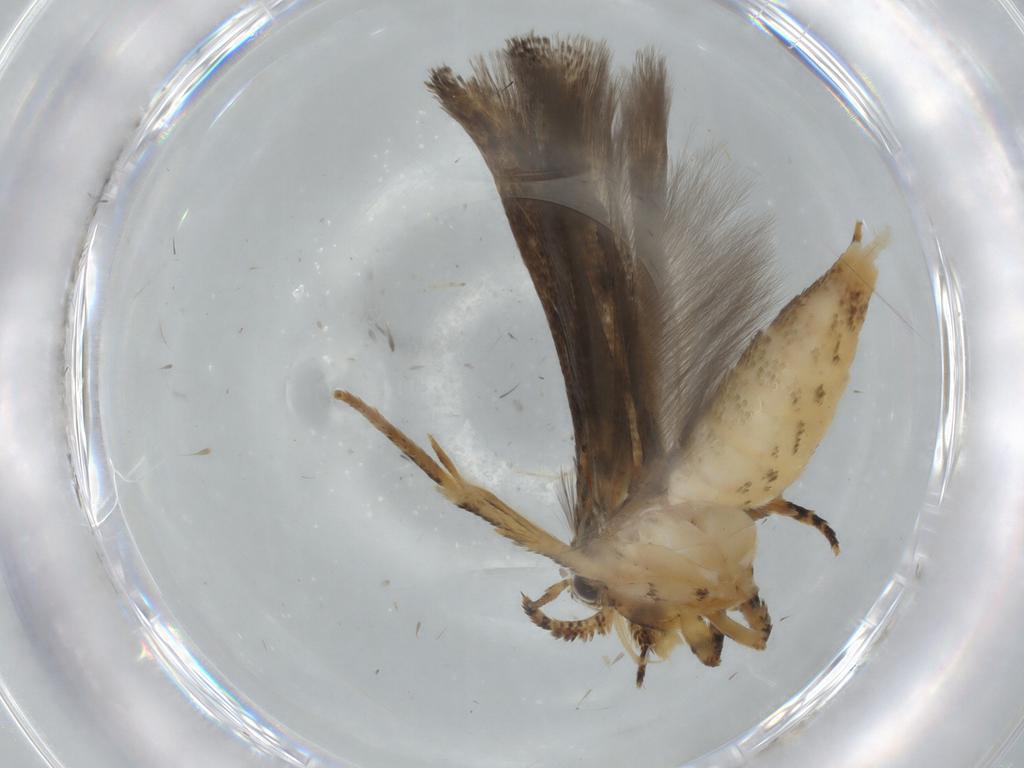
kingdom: Animalia
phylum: Arthropoda
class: Insecta
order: Lepidoptera
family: Gelechiidae
